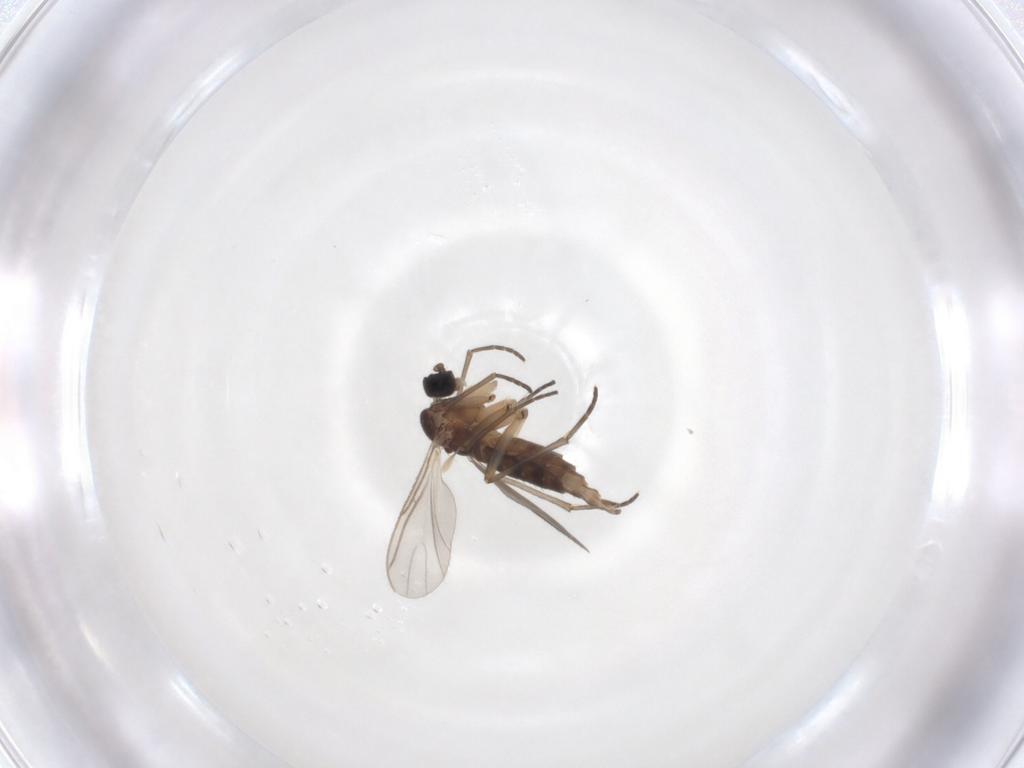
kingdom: Animalia
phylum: Arthropoda
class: Insecta
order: Diptera
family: Sciaridae
